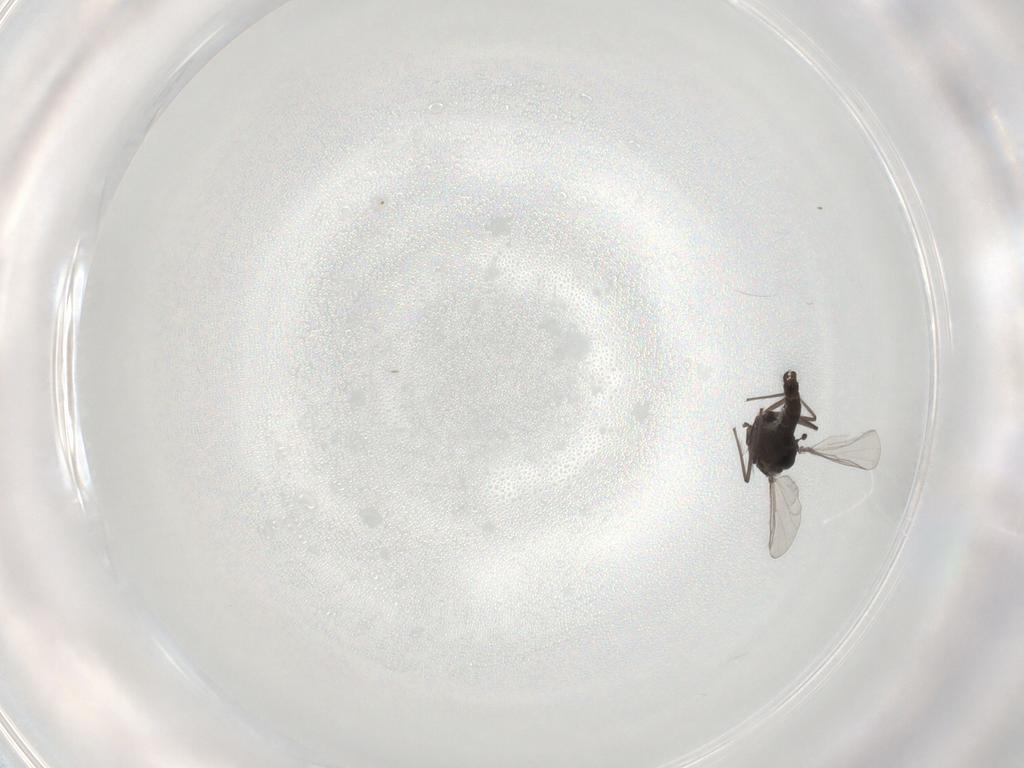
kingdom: Animalia
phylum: Arthropoda
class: Insecta
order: Diptera
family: Chironomidae
